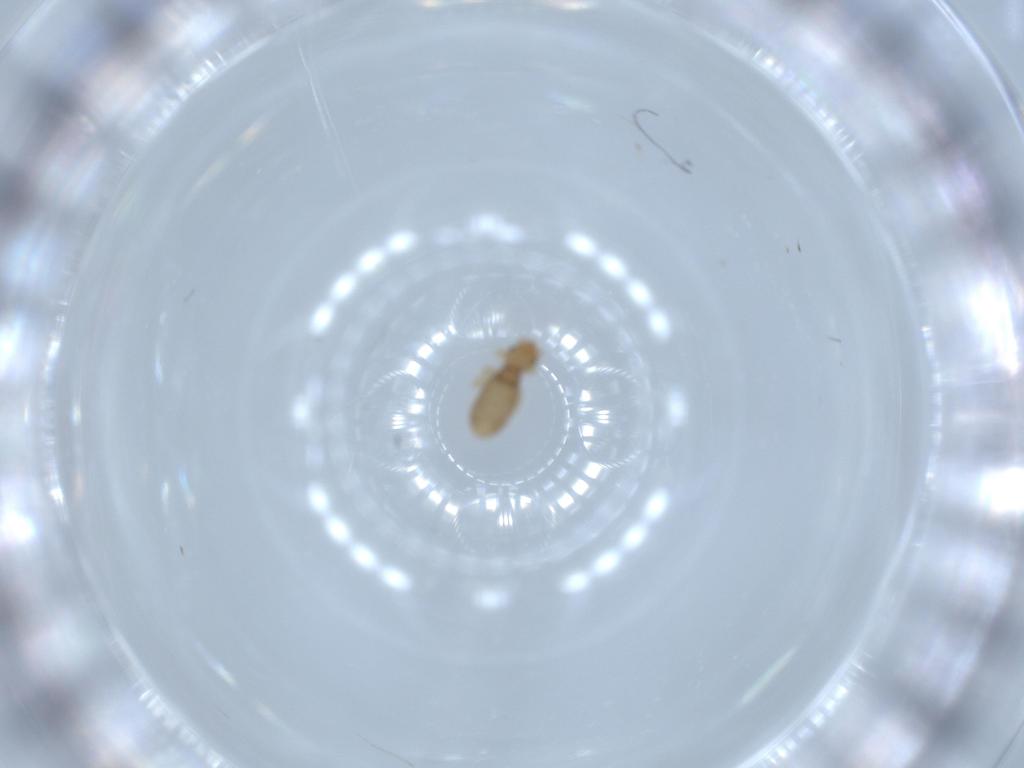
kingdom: Animalia
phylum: Arthropoda
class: Insecta
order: Psocodea
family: Liposcelididae
